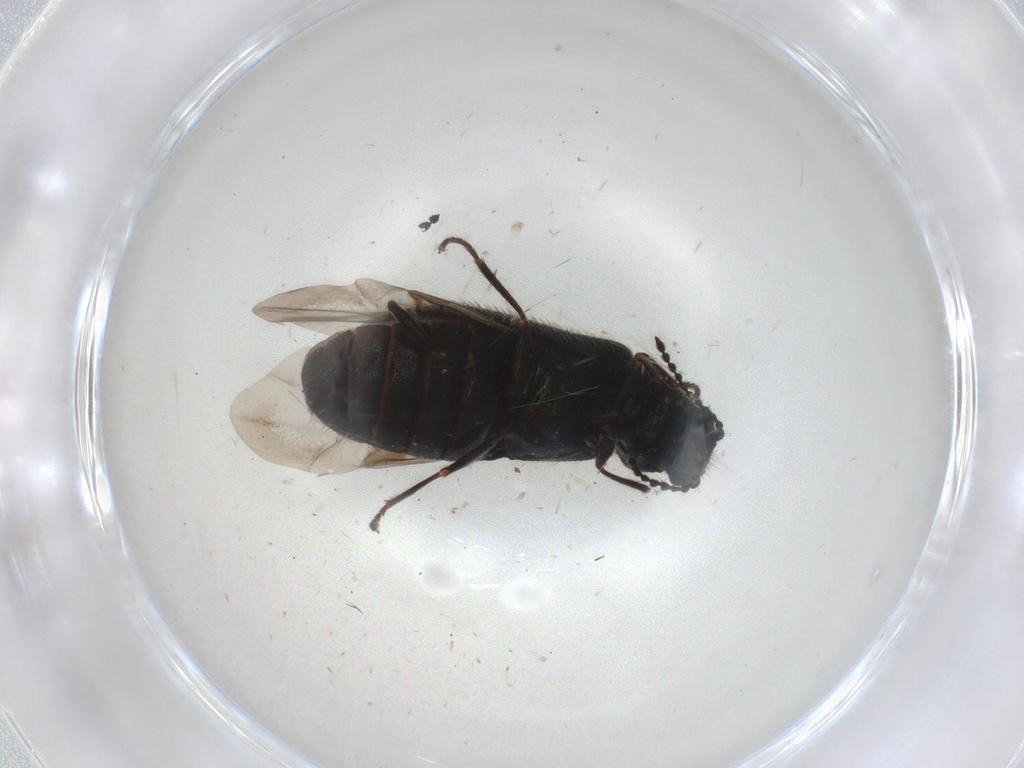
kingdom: Animalia
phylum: Arthropoda
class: Insecta
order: Coleoptera
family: Melyridae
